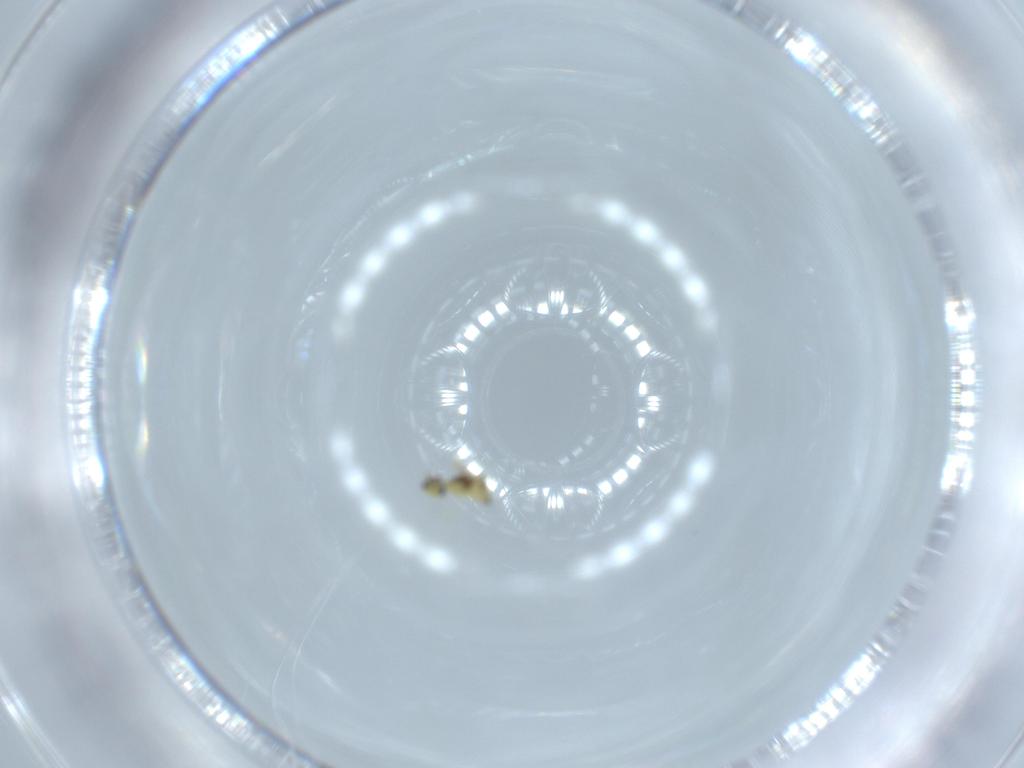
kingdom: Animalia
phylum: Arthropoda
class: Insecta
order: Hymenoptera
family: Trichogrammatidae
